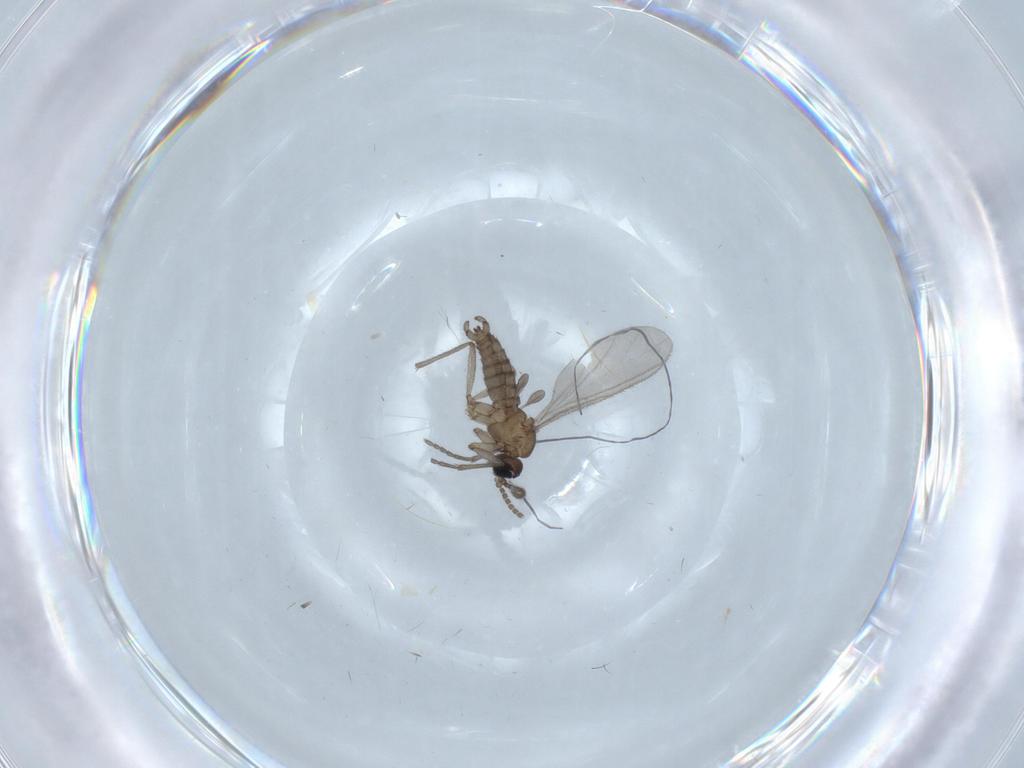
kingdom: Animalia
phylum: Arthropoda
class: Insecta
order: Diptera
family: Sciaridae
